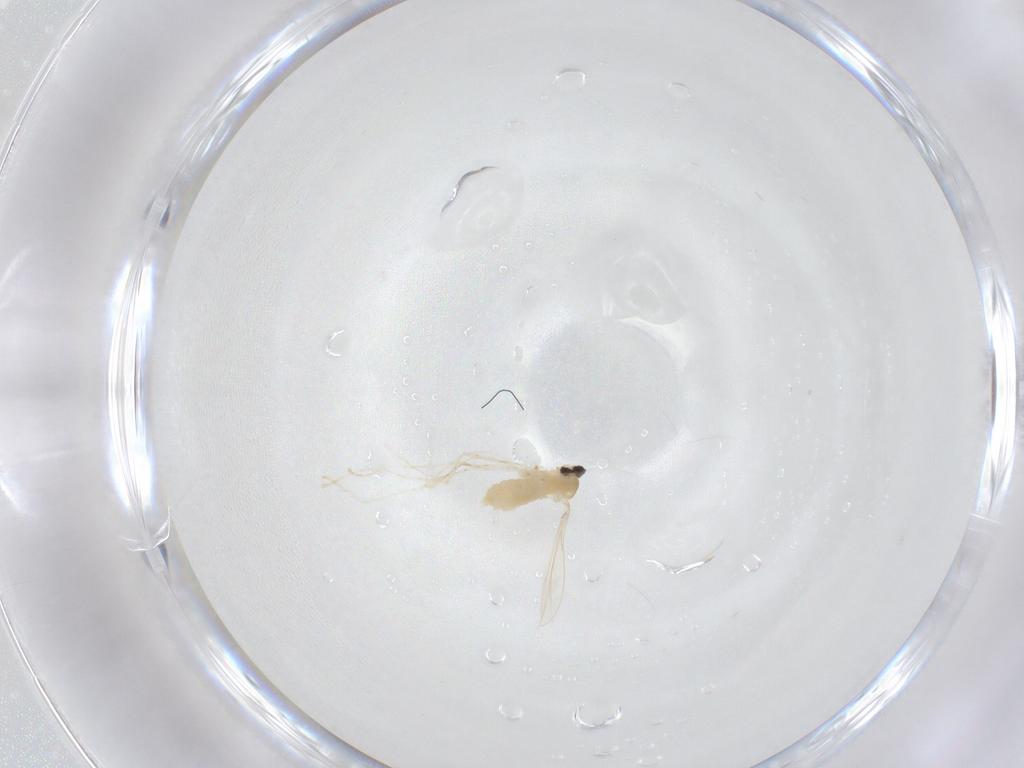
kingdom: Animalia
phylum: Arthropoda
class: Insecta
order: Diptera
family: Cecidomyiidae
